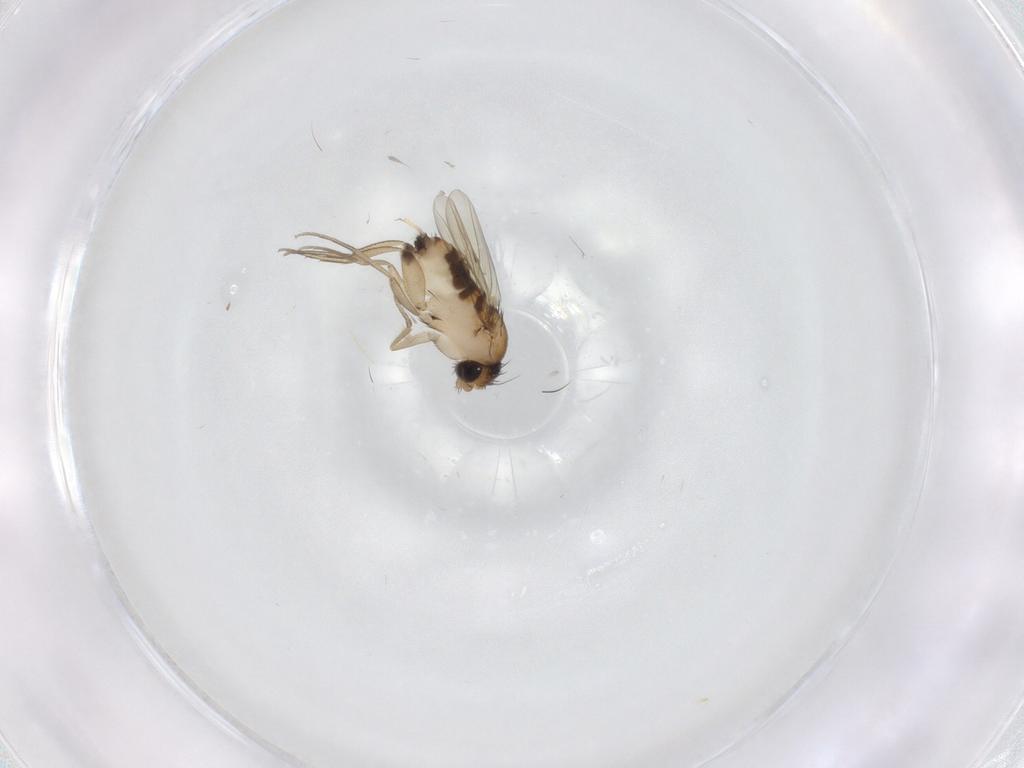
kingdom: Animalia
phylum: Arthropoda
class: Insecta
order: Diptera
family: Phoridae
